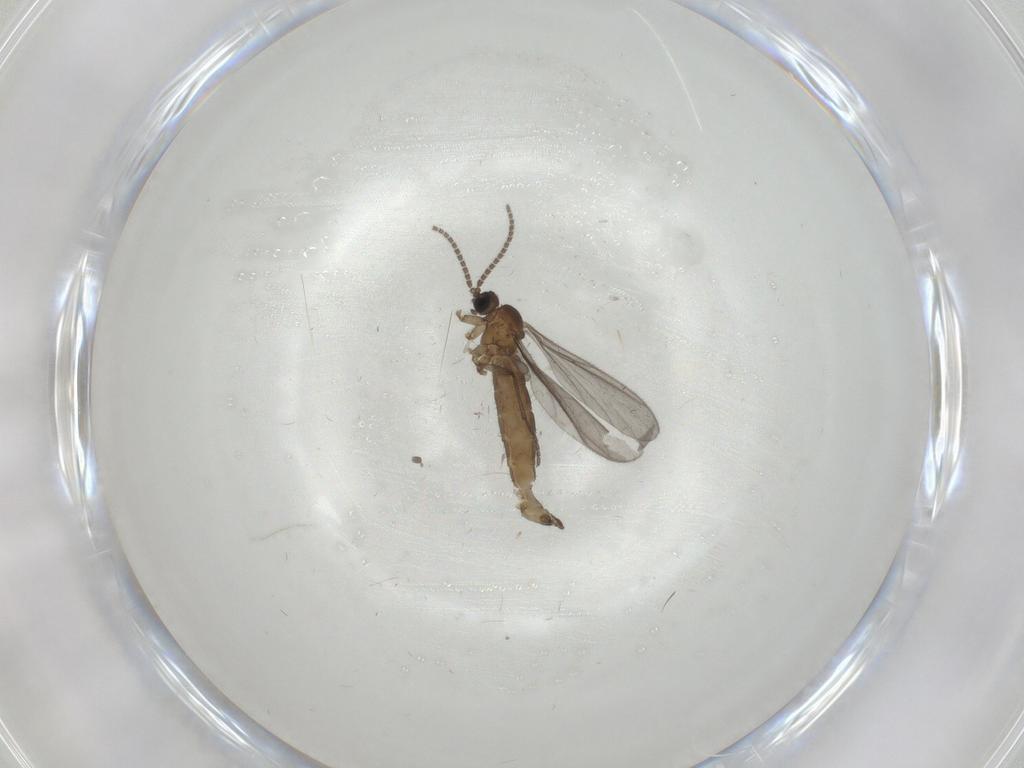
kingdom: Animalia
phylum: Arthropoda
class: Insecta
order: Diptera
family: Sciaridae
